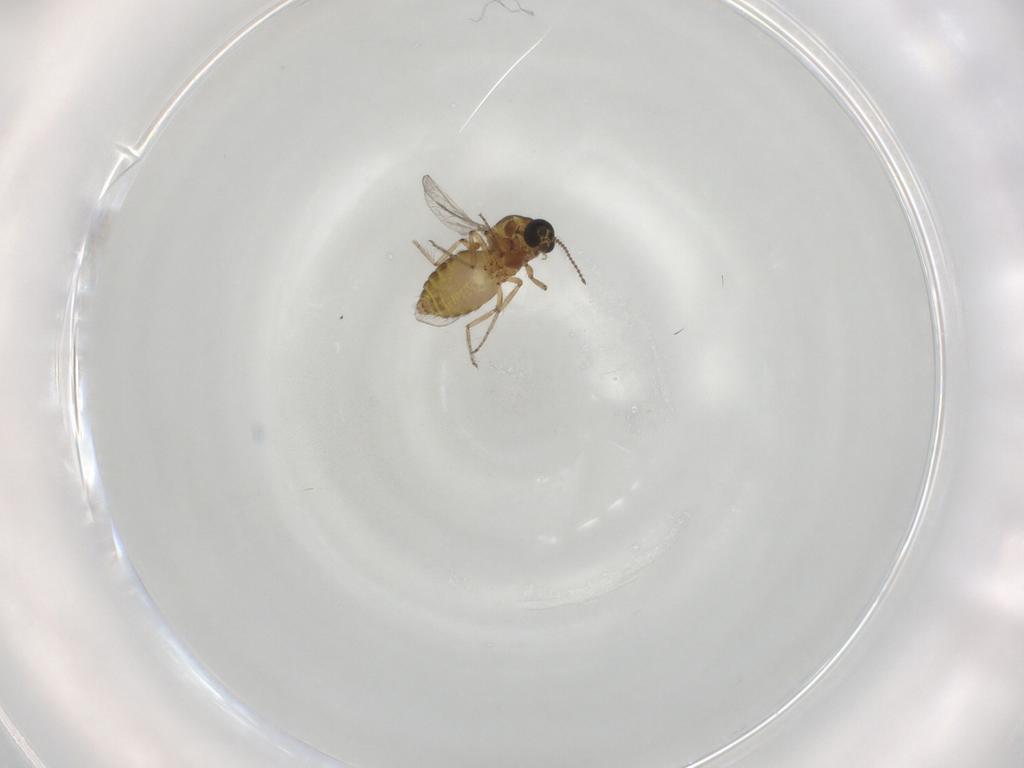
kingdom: Animalia
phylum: Arthropoda
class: Insecta
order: Diptera
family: Ceratopogonidae
